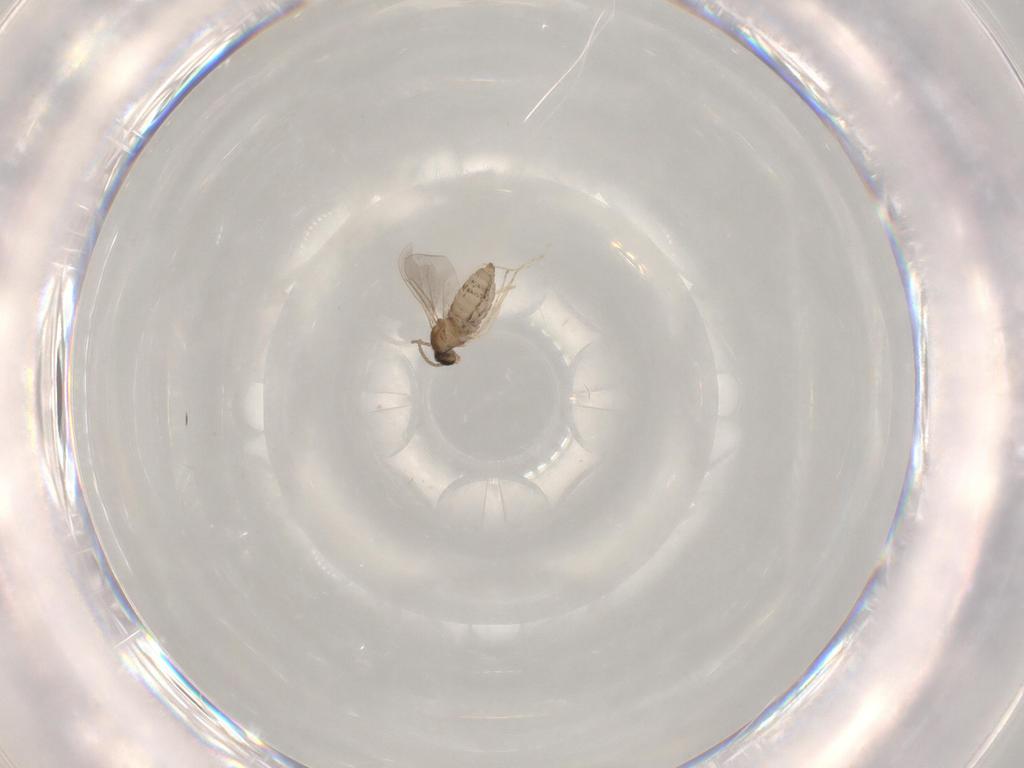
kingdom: Animalia
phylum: Arthropoda
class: Insecta
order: Diptera
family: Cecidomyiidae
